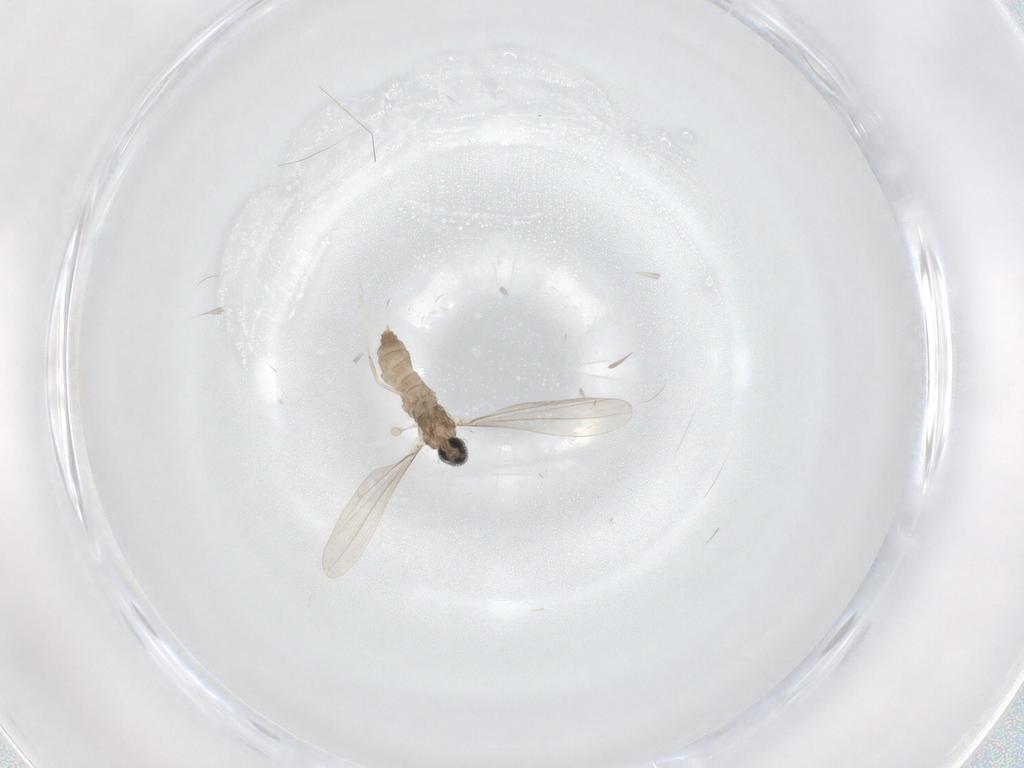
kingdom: Animalia
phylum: Arthropoda
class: Insecta
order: Diptera
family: Cecidomyiidae
